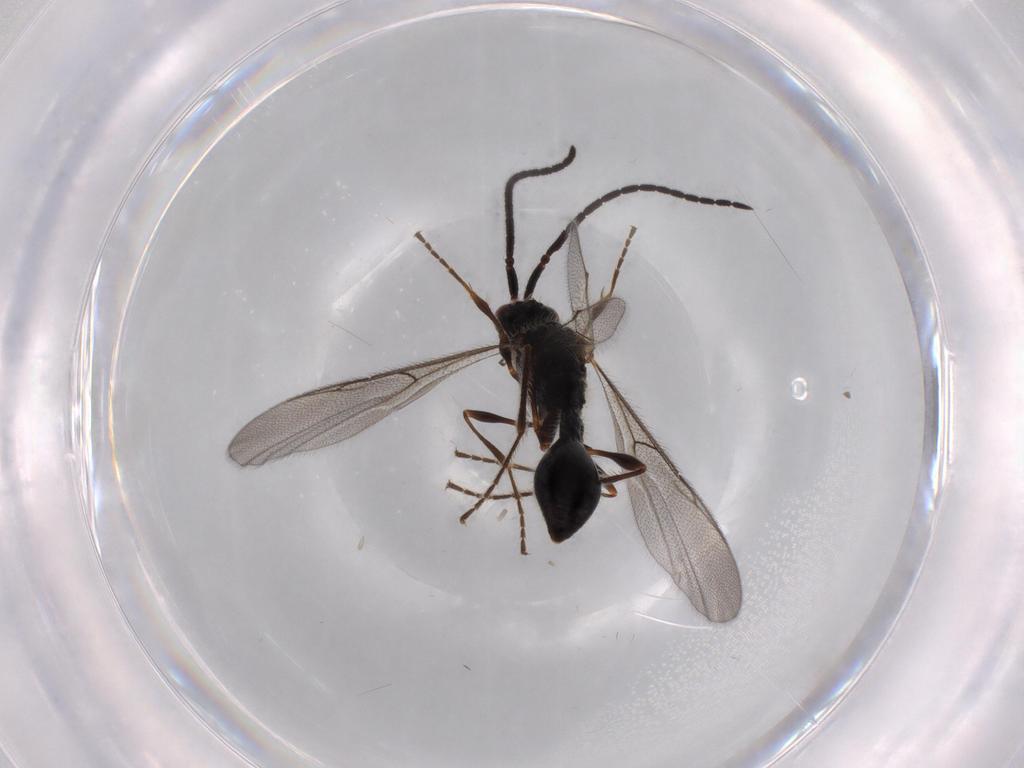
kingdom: Animalia
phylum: Arthropoda
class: Insecta
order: Hymenoptera
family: Diapriidae
